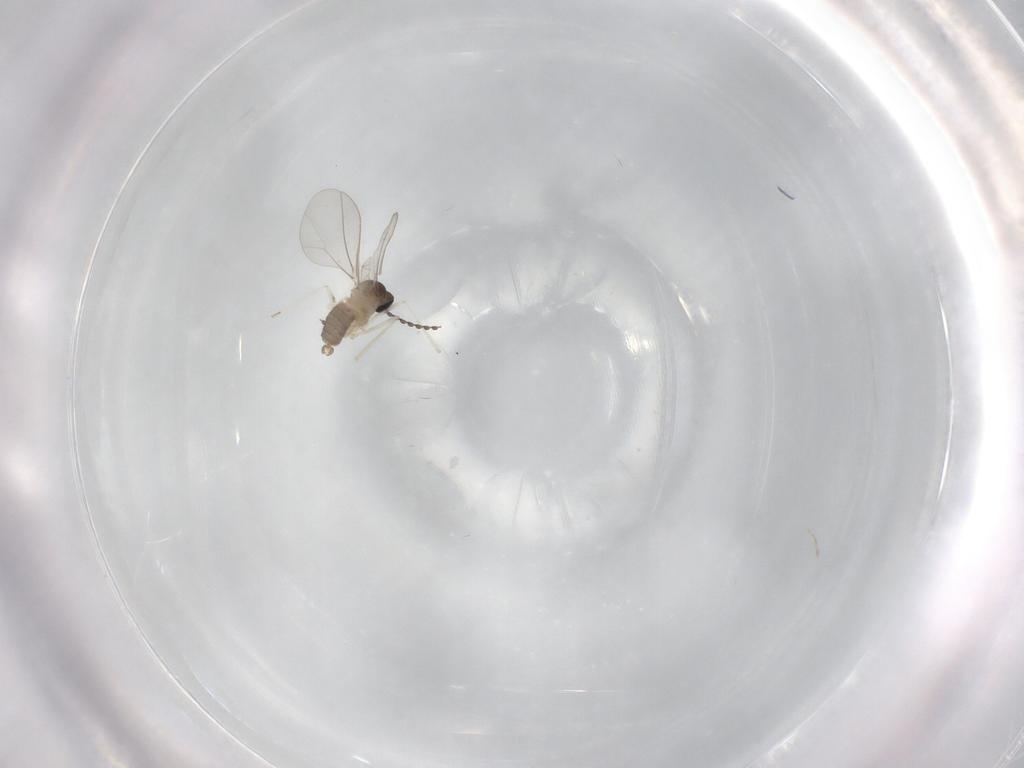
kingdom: Animalia
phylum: Arthropoda
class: Insecta
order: Diptera
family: Cecidomyiidae
